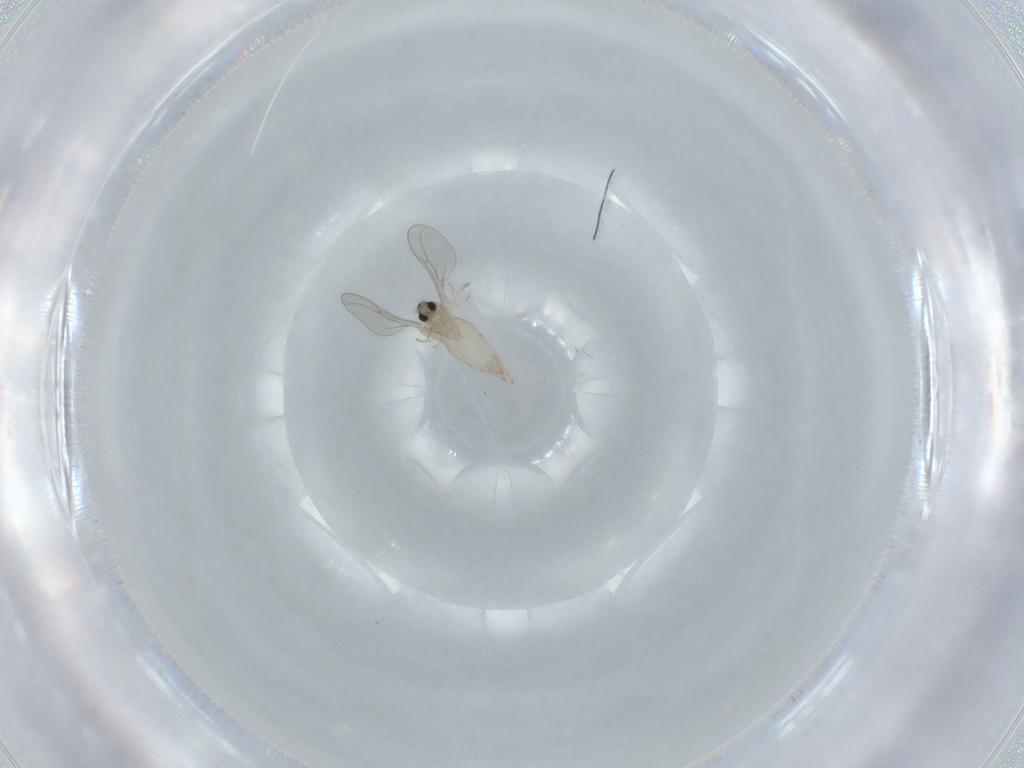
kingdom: Animalia
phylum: Arthropoda
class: Insecta
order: Diptera
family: Cecidomyiidae
